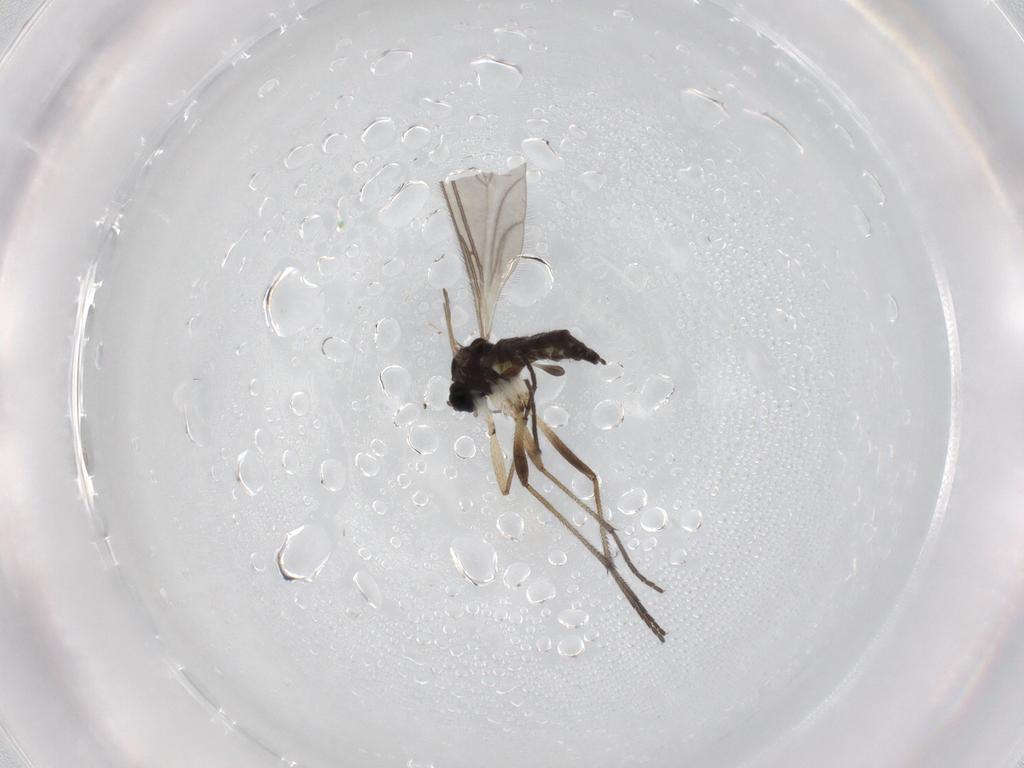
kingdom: Animalia
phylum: Arthropoda
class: Insecta
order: Diptera
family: Sciaridae
